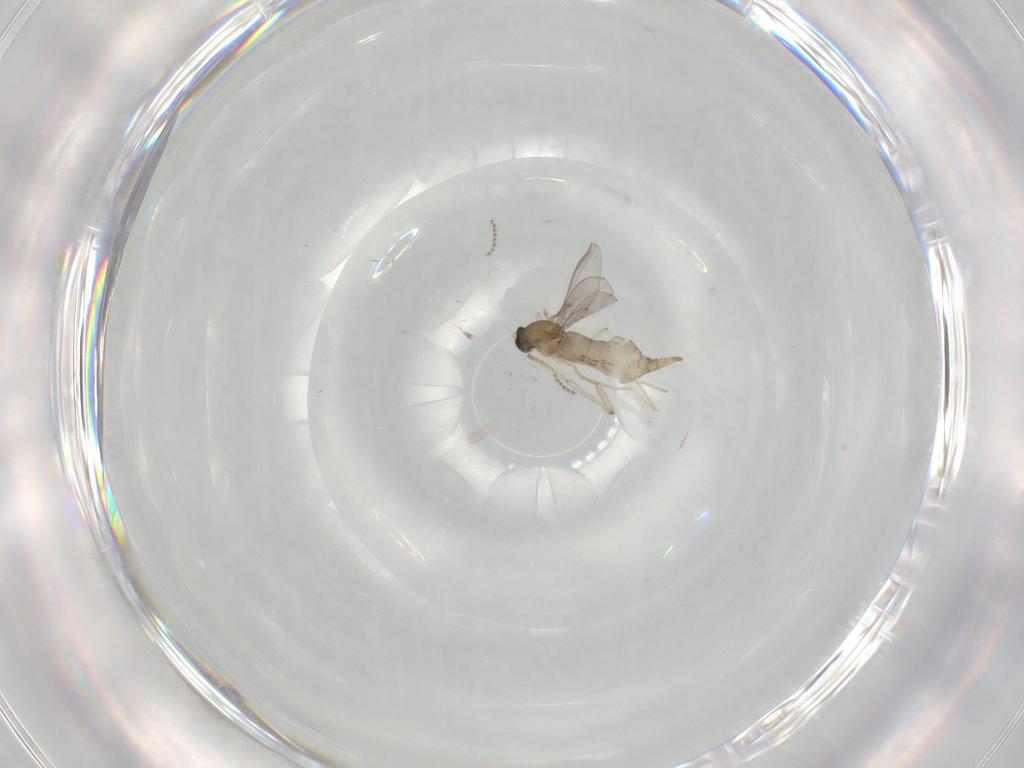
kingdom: Animalia
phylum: Arthropoda
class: Insecta
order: Diptera
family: Cecidomyiidae
